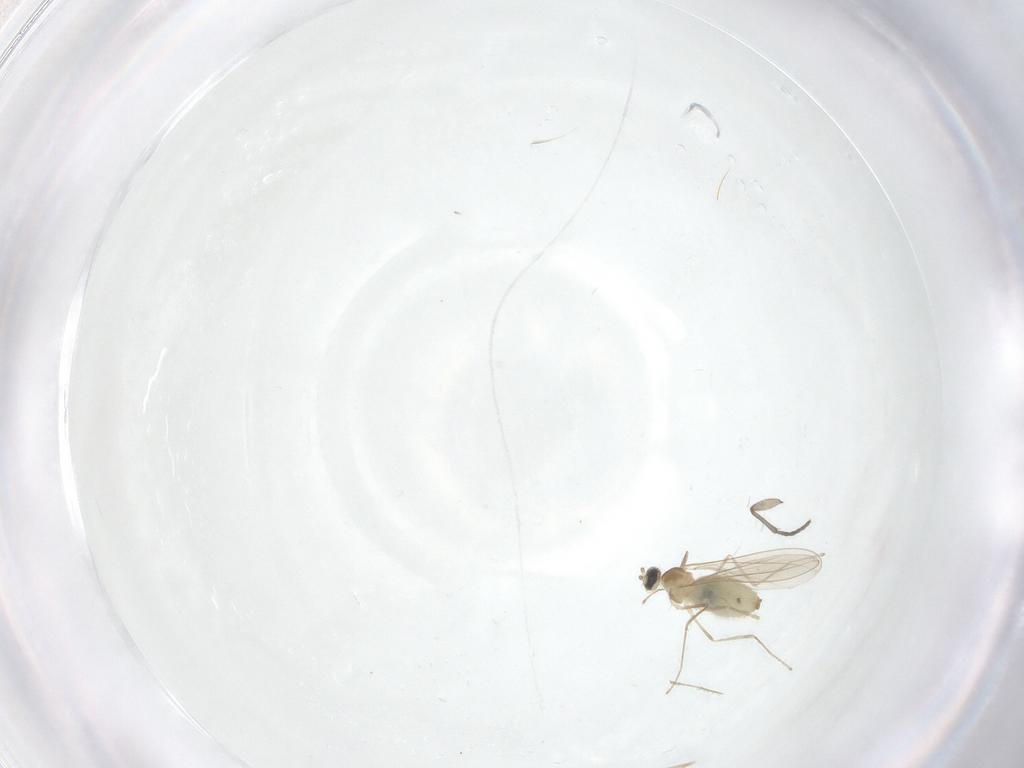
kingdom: Animalia
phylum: Arthropoda
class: Insecta
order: Diptera
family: Sciaridae
